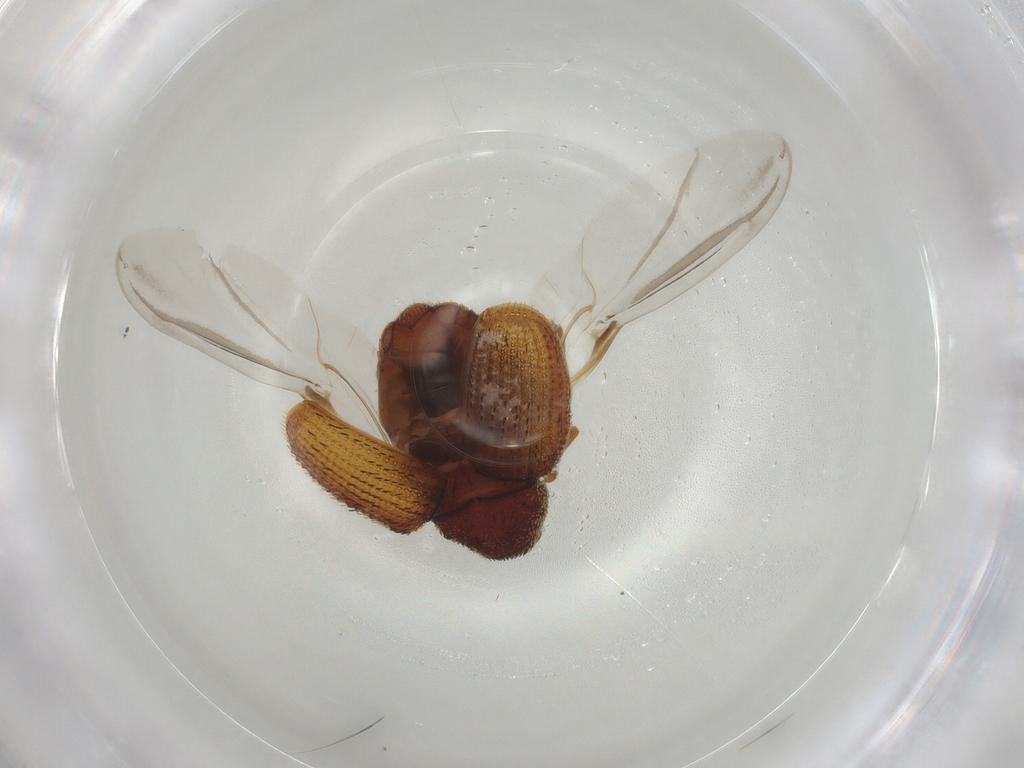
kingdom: Animalia
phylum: Arthropoda
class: Insecta
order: Coleoptera
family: Curculionidae
